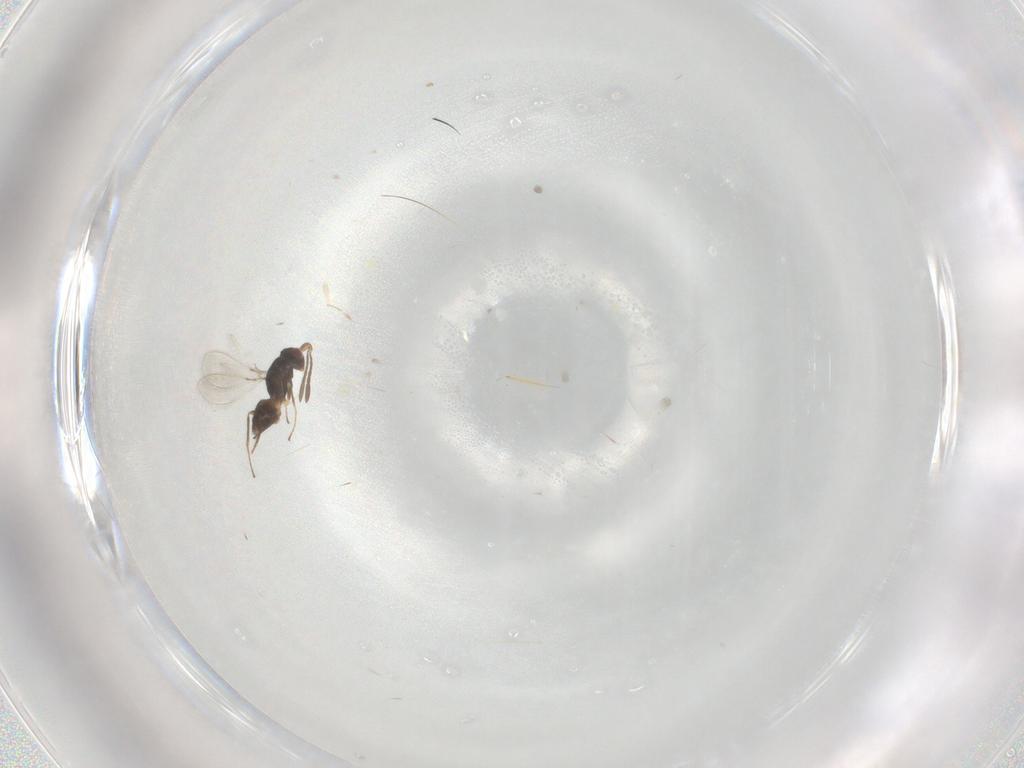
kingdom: Animalia
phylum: Arthropoda
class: Insecta
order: Hymenoptera
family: Mymaridae
